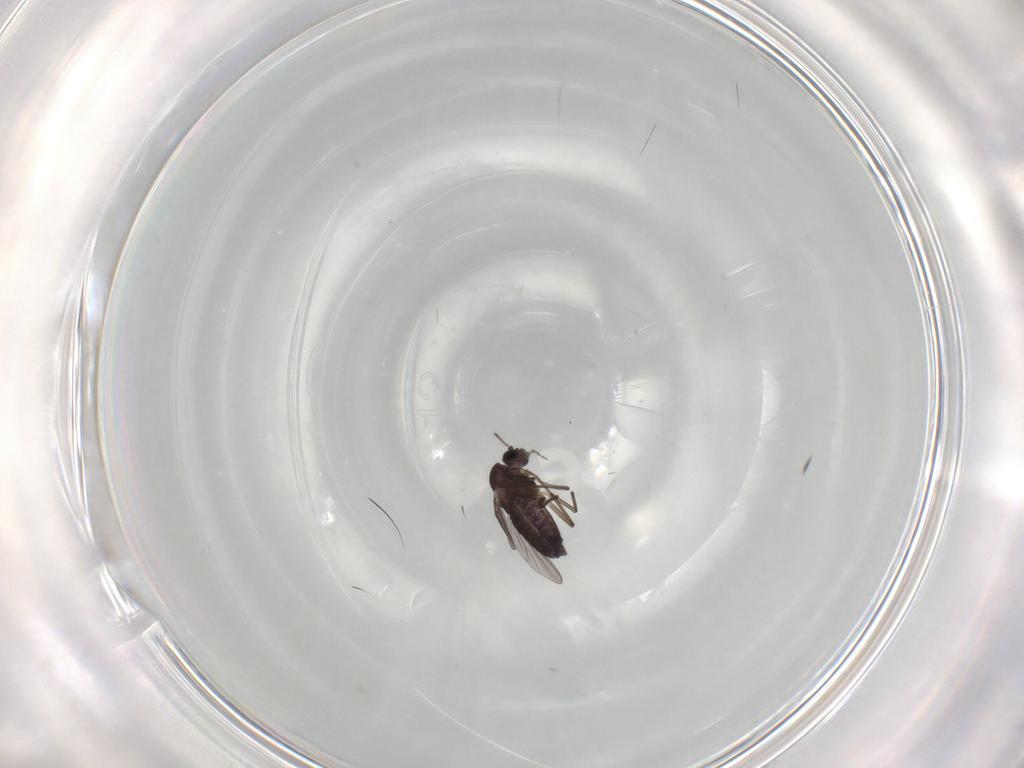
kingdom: Animalia
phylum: Arthropoda
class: Insecta
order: Diptera
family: Chironomidae
